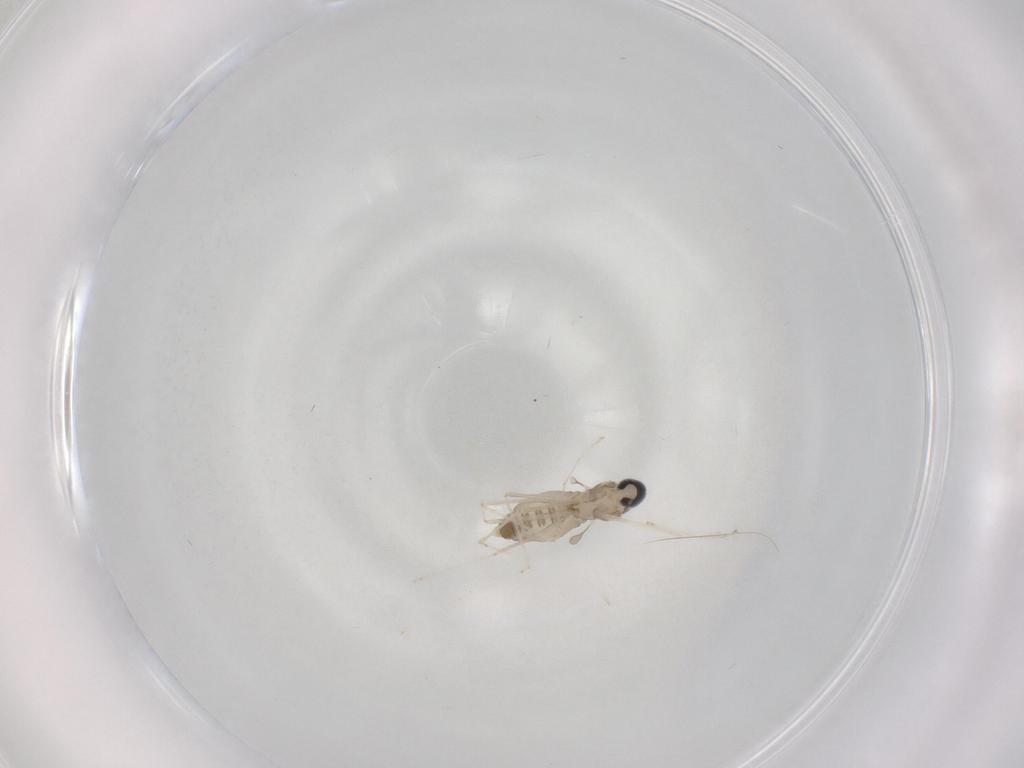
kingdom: Animalia
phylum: Arthropoda
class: Insecta
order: Diptera
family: Cecidomyiidae
